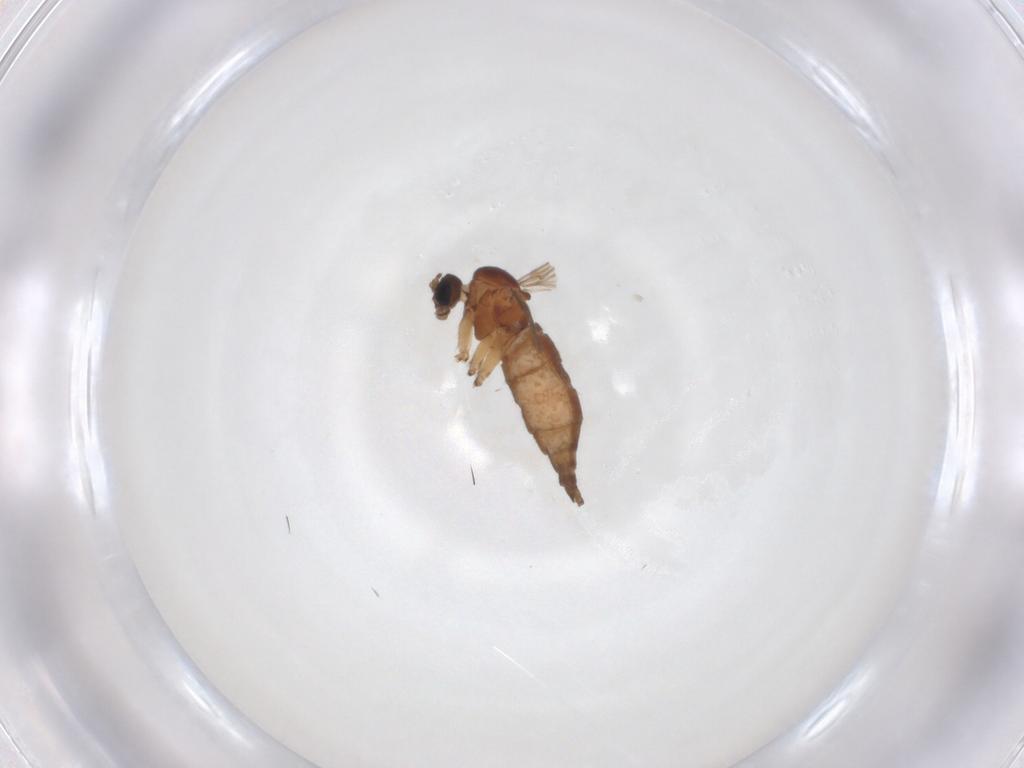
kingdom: Animalia
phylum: Arthropoda
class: Insecta
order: Diptera
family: Sciaridae
